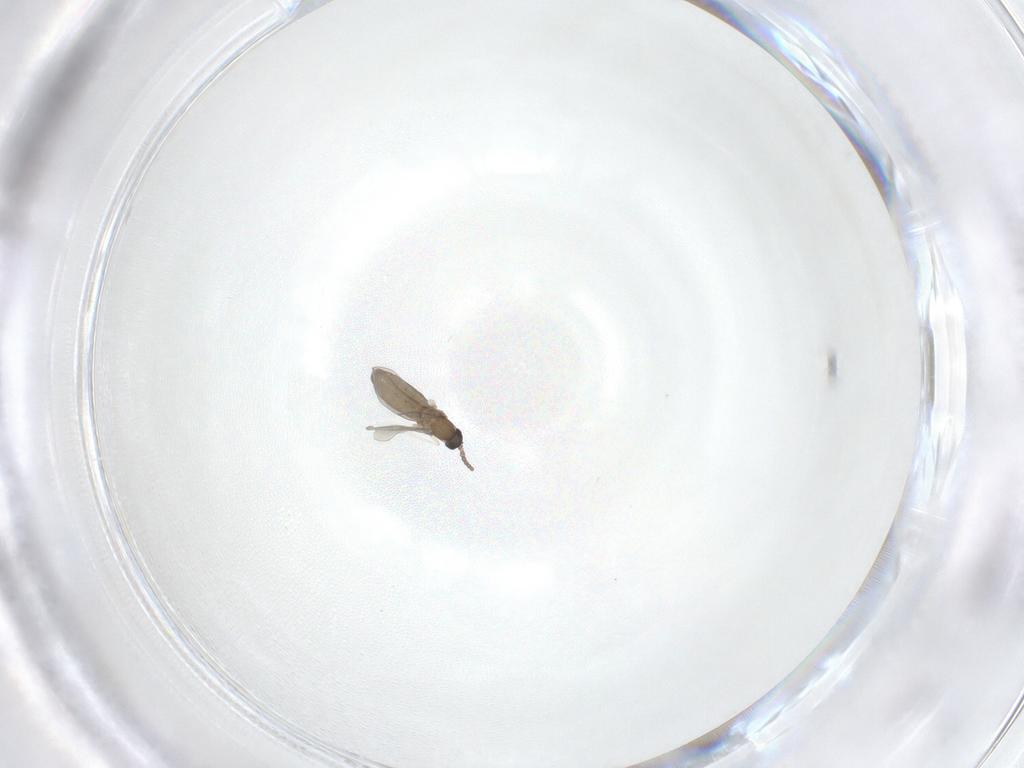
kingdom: Animalia
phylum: Arthropoda
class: Insecta
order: Diptera
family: Cecidomyiidae
